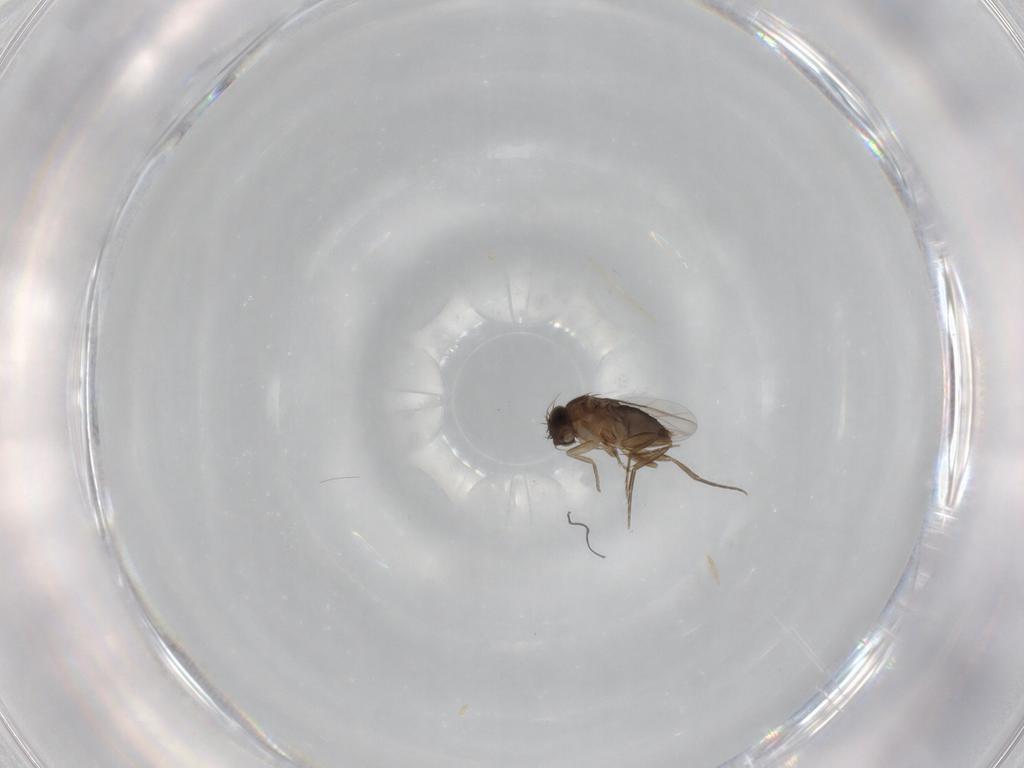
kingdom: Animalia
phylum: Arthropoda
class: Insecta
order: Diptera
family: Phoridae
